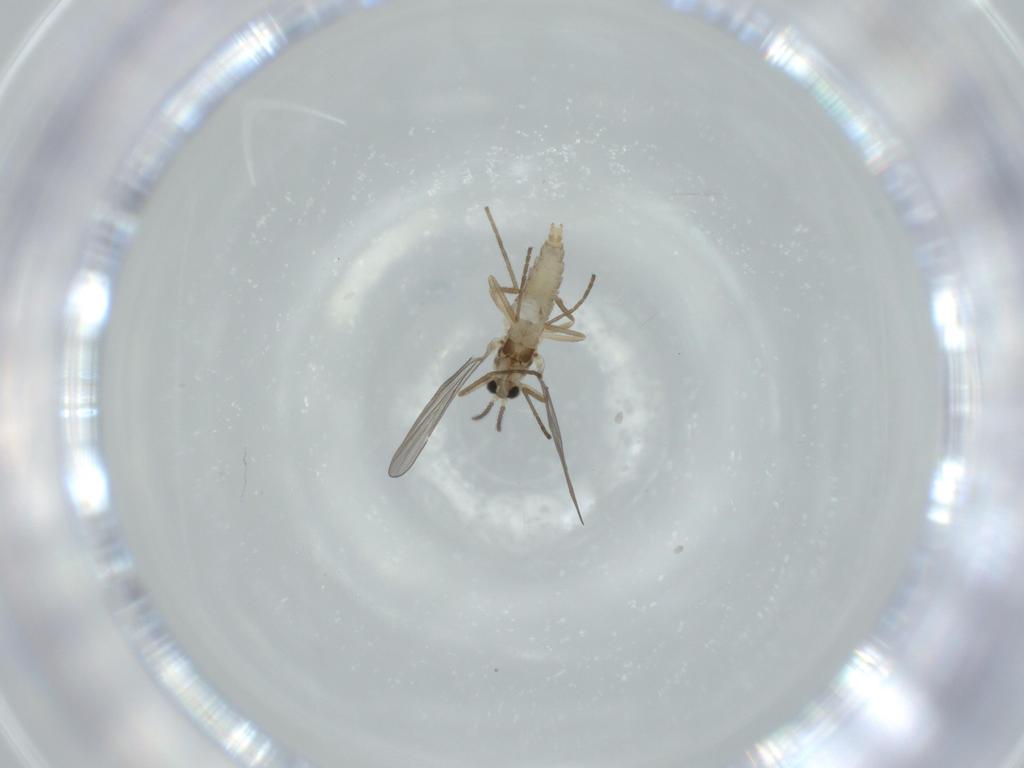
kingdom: Animalia
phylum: Arthropoda
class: Insecta
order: Diptera
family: Cecidomyiidae
